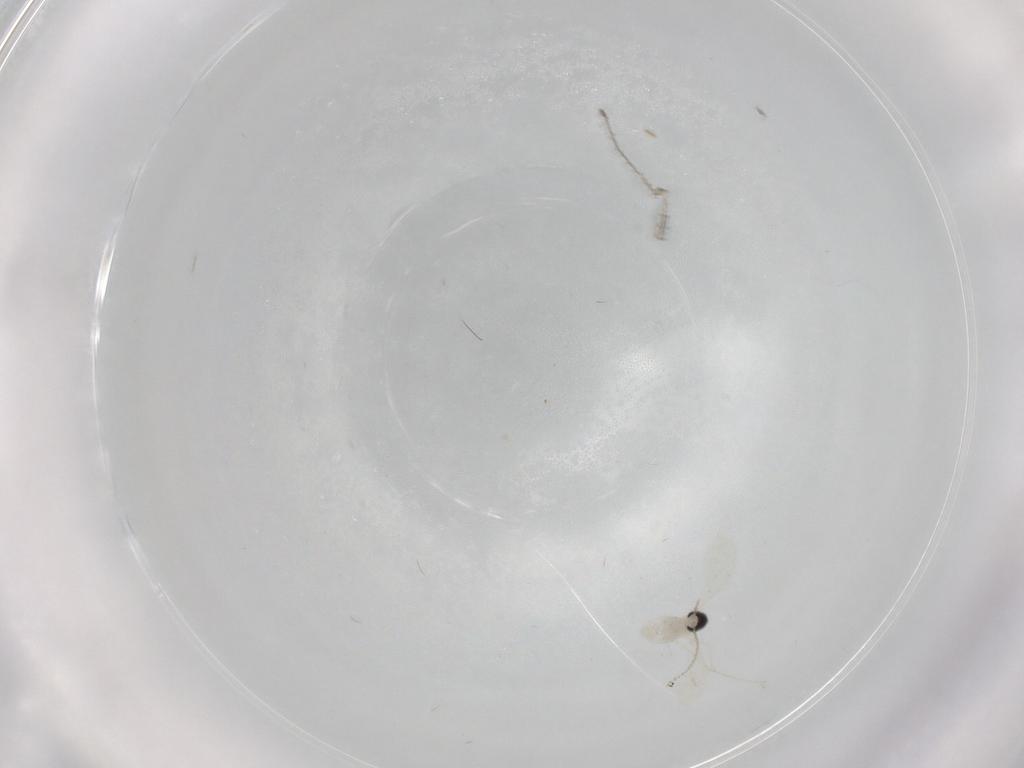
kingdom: Animalia
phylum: Arthropoda
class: Insecta
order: Diptera
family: Cecidomyiidae
